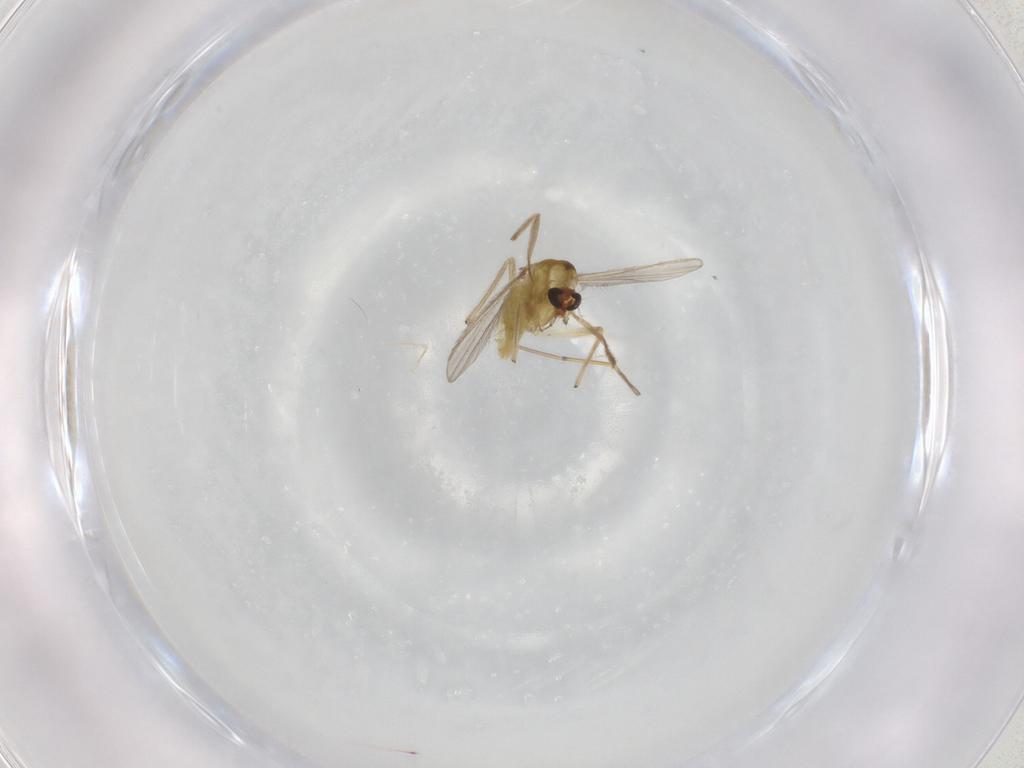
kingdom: Animalia
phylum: Arthropoda
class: Insecta
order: Diptera
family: Chironomidae
